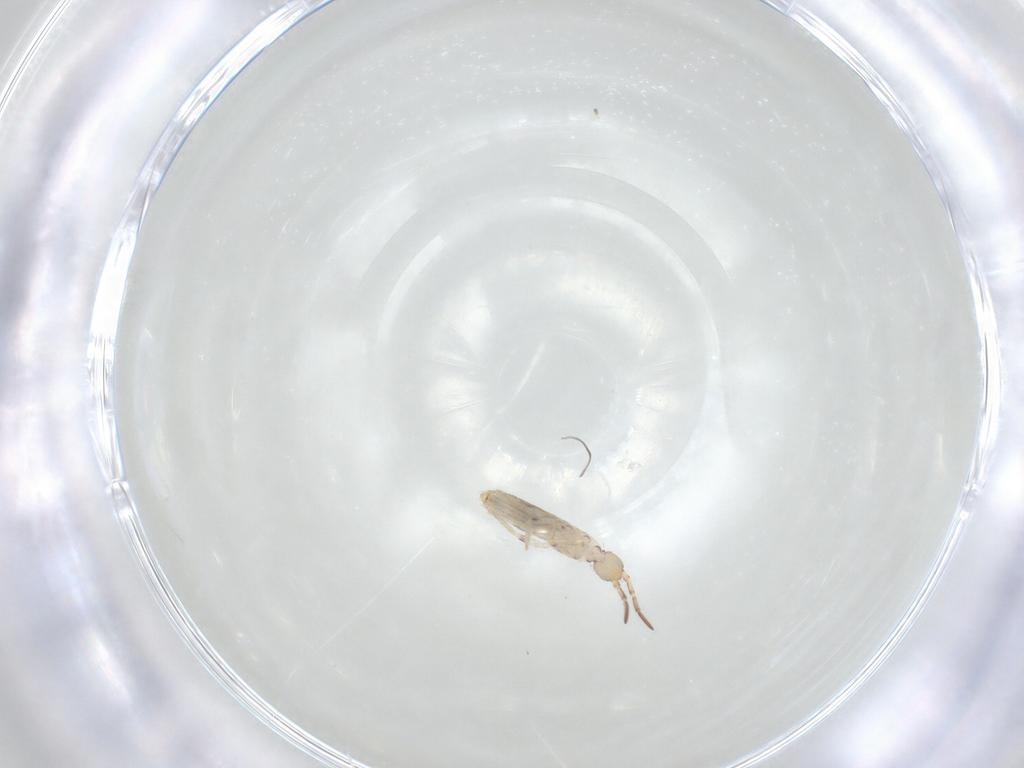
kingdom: Animalia
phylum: Arthropoda
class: Collembola
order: Entomobryomorpha
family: Entomobryidae
